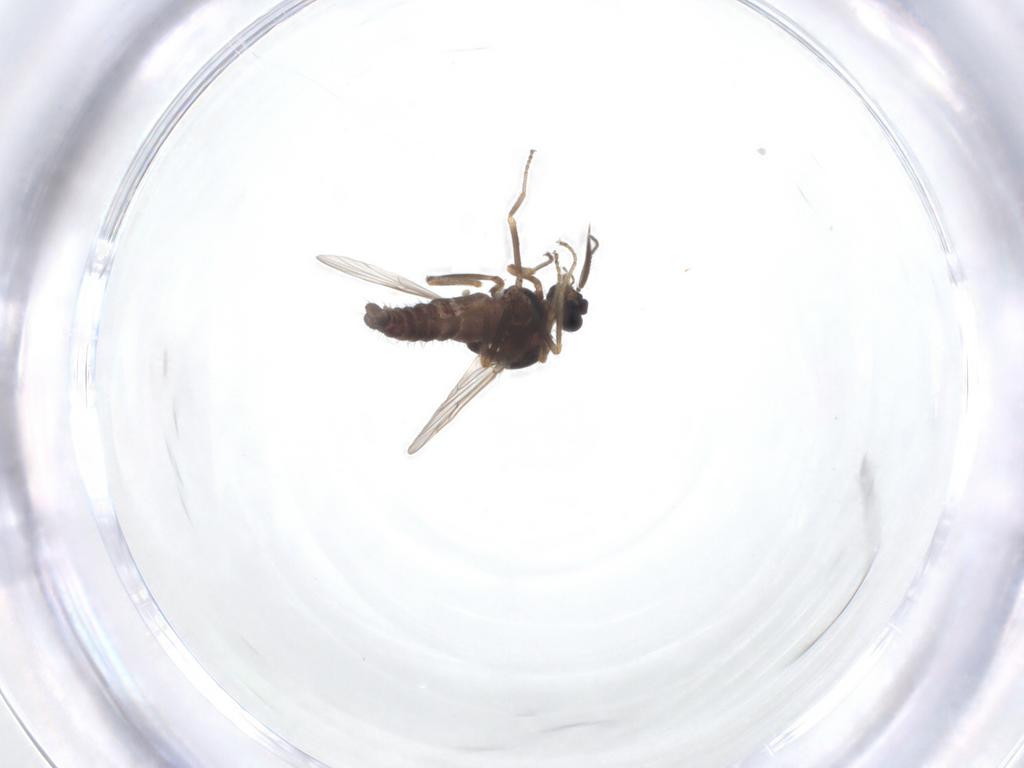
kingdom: Animalia
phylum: Arthropoda
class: Insecta
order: Diptera
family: Ceratopogonidae
